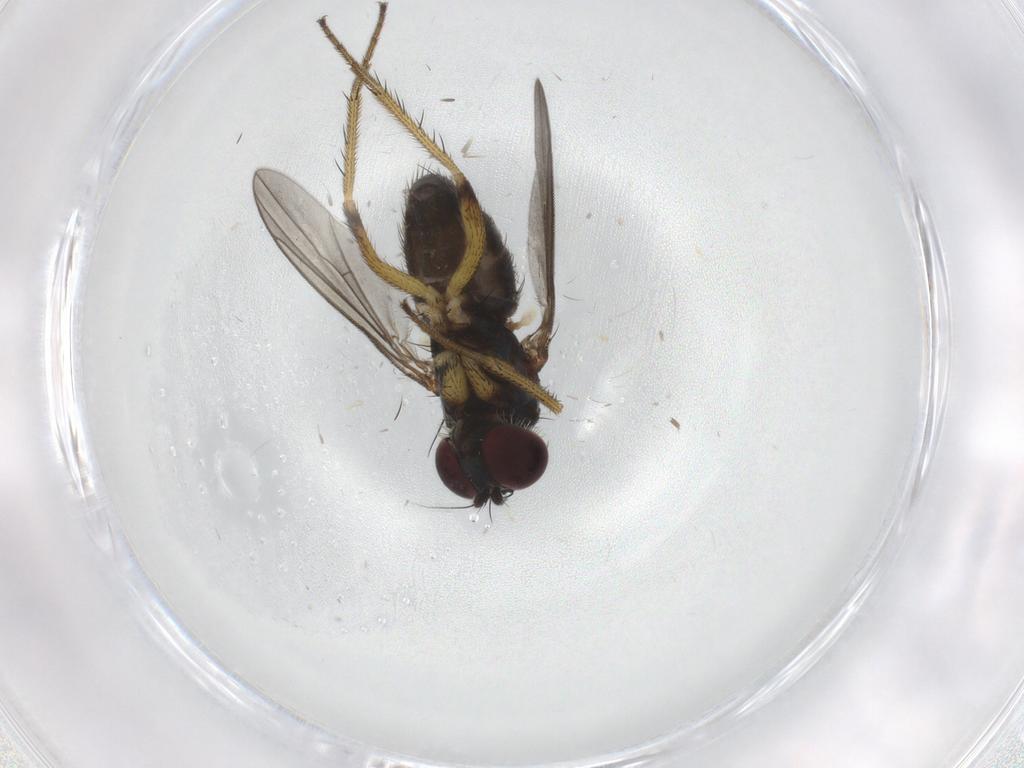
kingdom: Animalia
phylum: Arthropoda
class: Insecta
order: Diptera
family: Dolichopodidae
